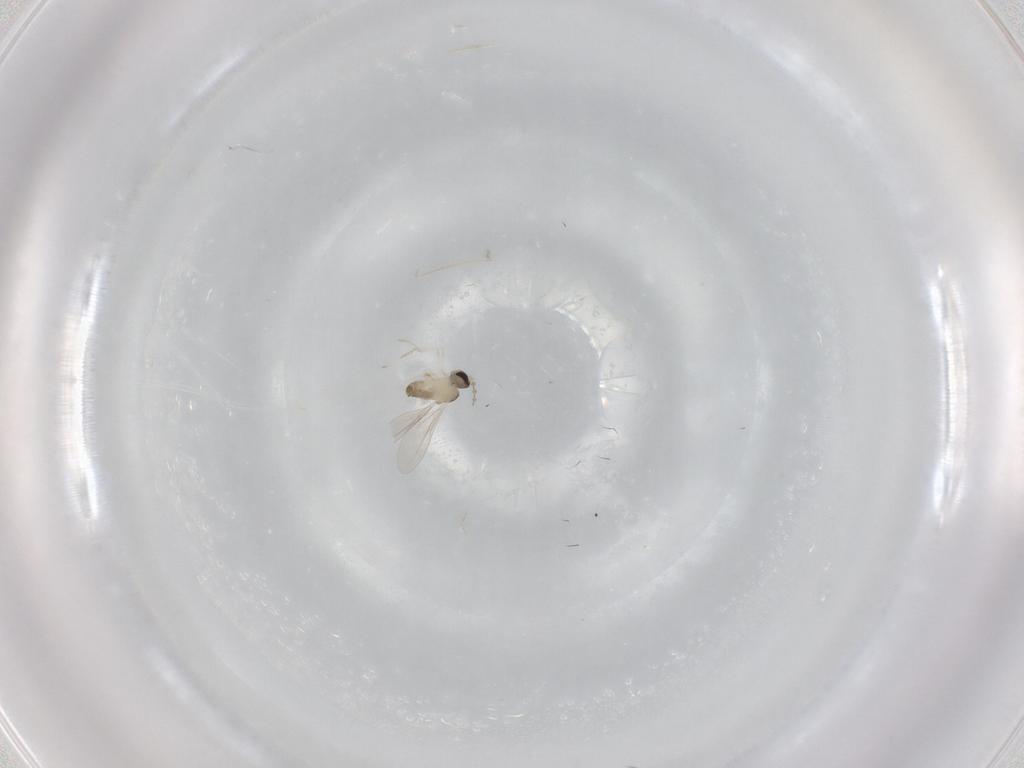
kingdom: Animalia
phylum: Arthropoda
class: Insecta
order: Diptera
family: Cecidomyiidae
